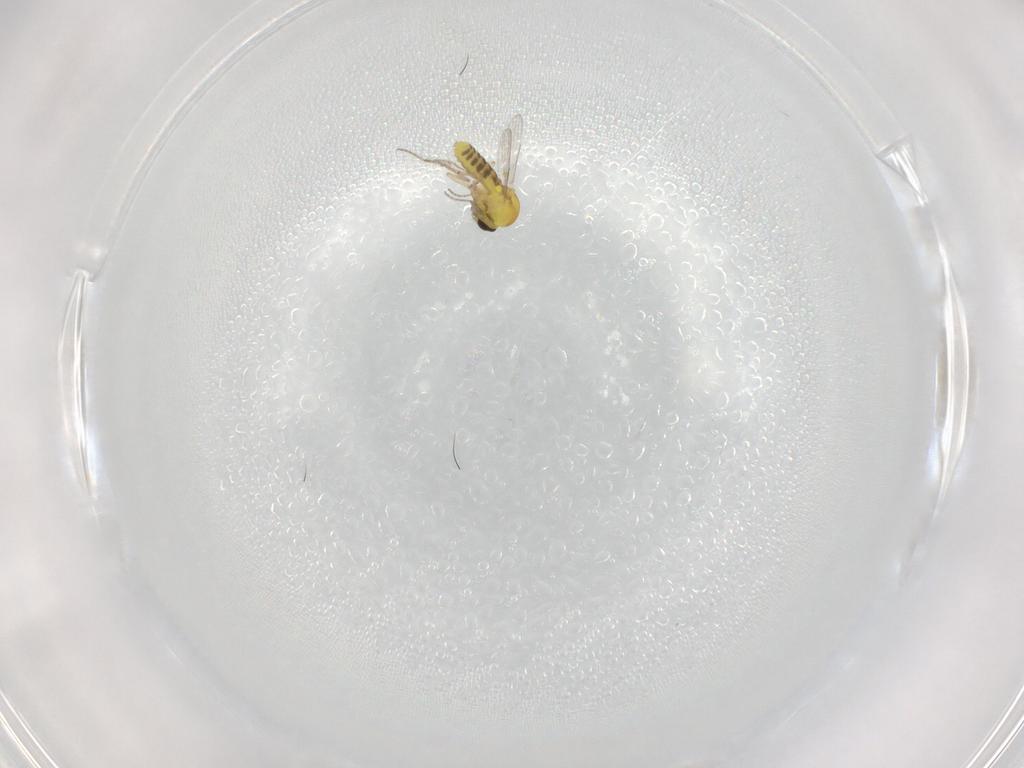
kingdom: Animalia
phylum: Arthropoda
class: Insecta
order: Diptera
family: Ceratopogonidae
